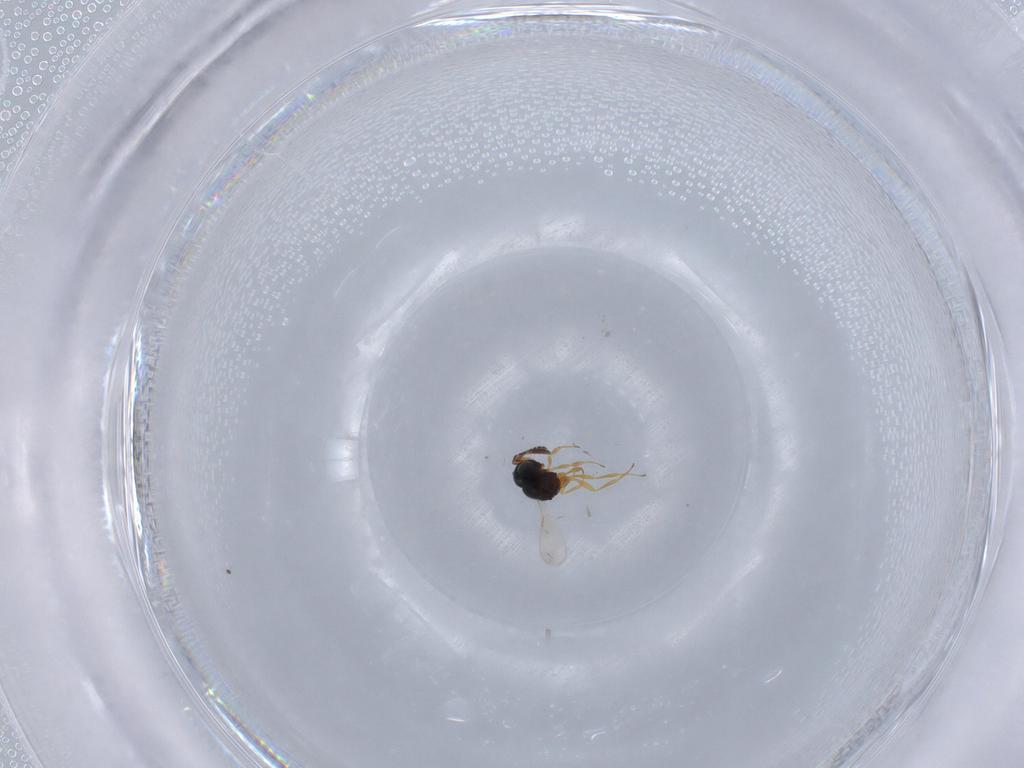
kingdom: Animalia
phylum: Arthropoda
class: Insecta
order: Hymenoptera
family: Scelionidae
